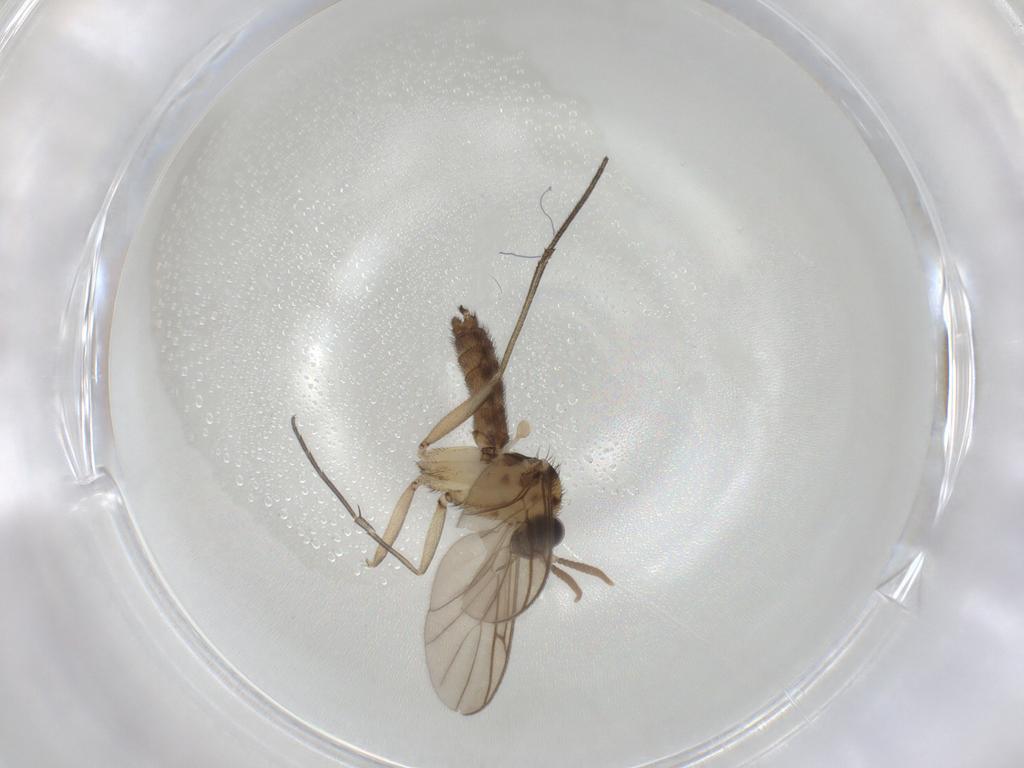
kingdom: Animalia
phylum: Arthropoda
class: Insecta
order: Diptera
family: Keroplatidae
